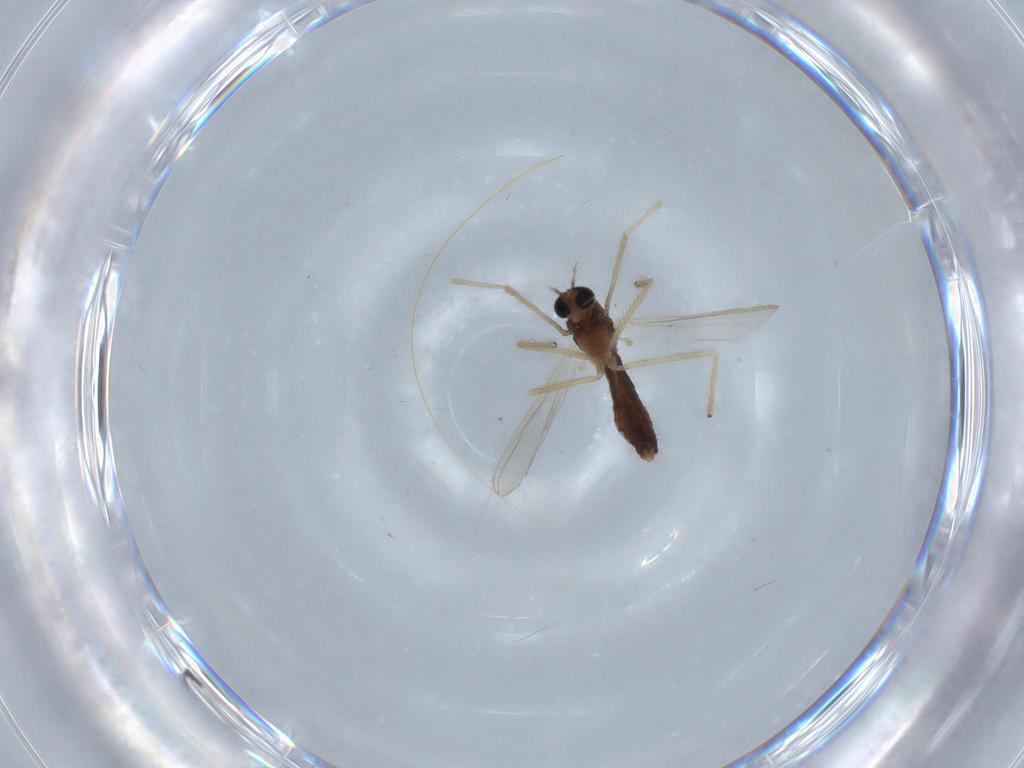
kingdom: Animalia
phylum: Arthropoda
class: Insecta
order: Diptera
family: Chironomidae
